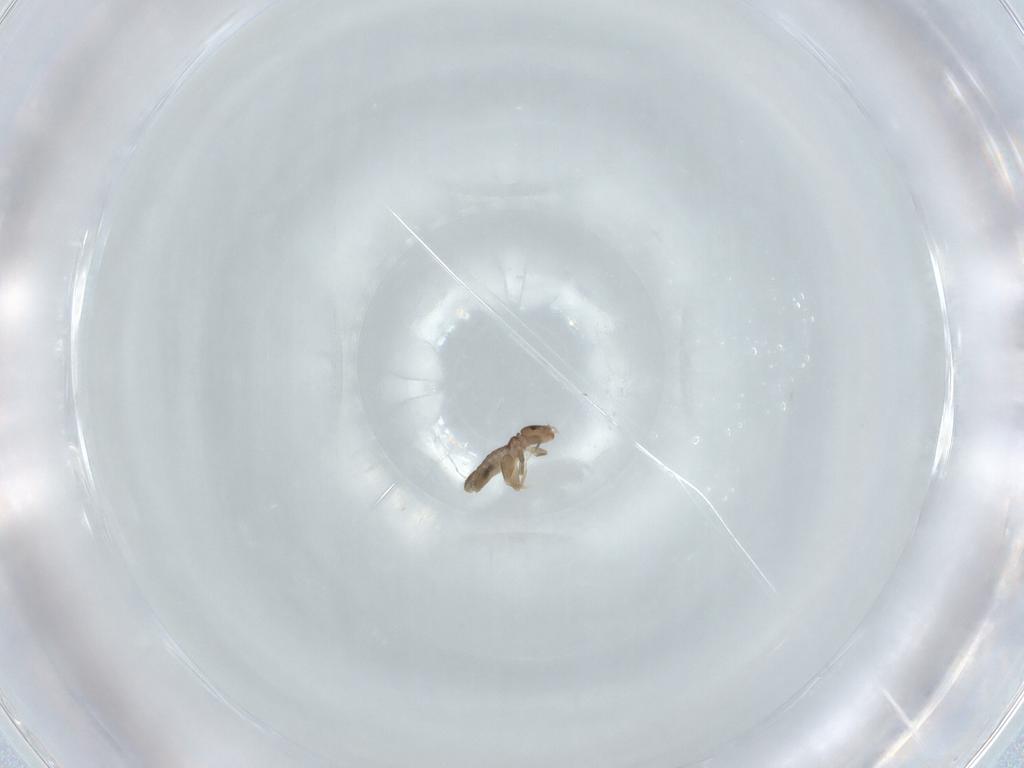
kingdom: Animalia
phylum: Arthropoda
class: Insecta
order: Psocodea
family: Liposcelididae
